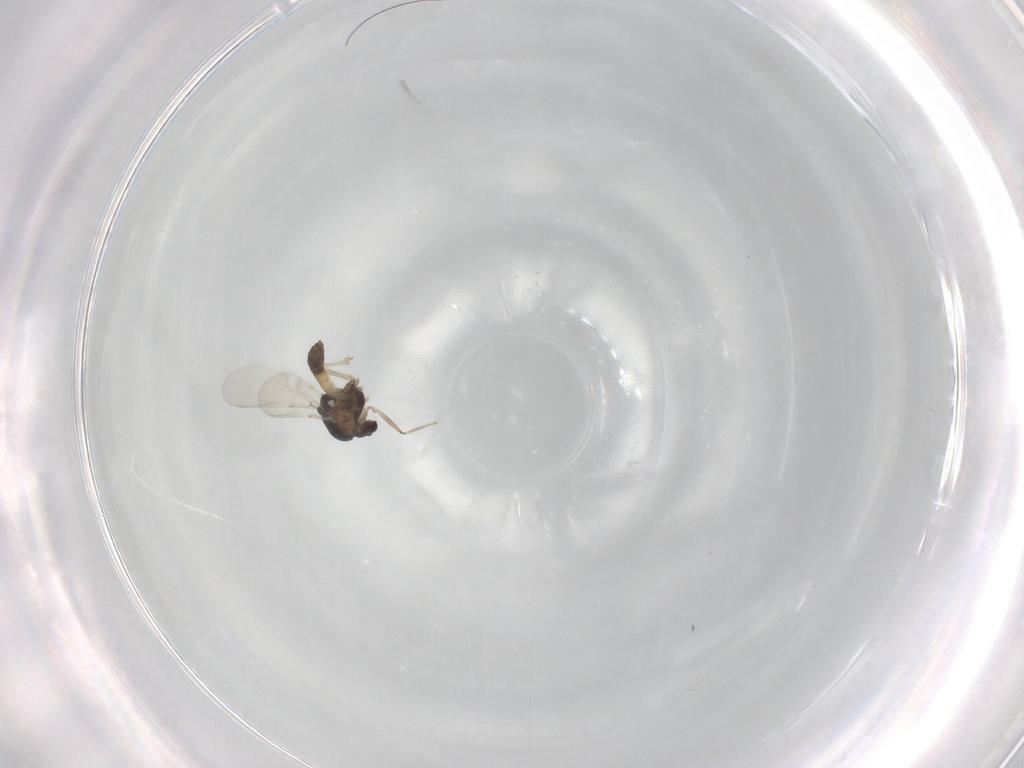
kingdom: Animalia
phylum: Arthropoda
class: Insecta
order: Diptera
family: Chironomidae
